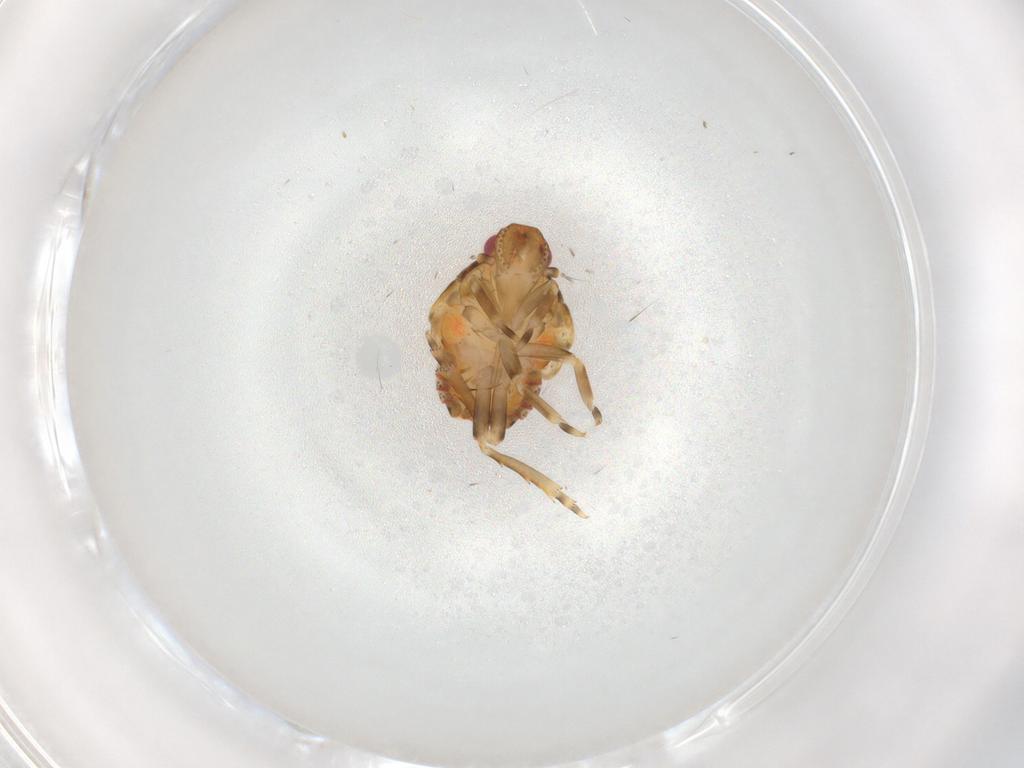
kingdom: Animalia
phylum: Arthropoda
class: Insecta
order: Hemiptera
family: Flatidae
